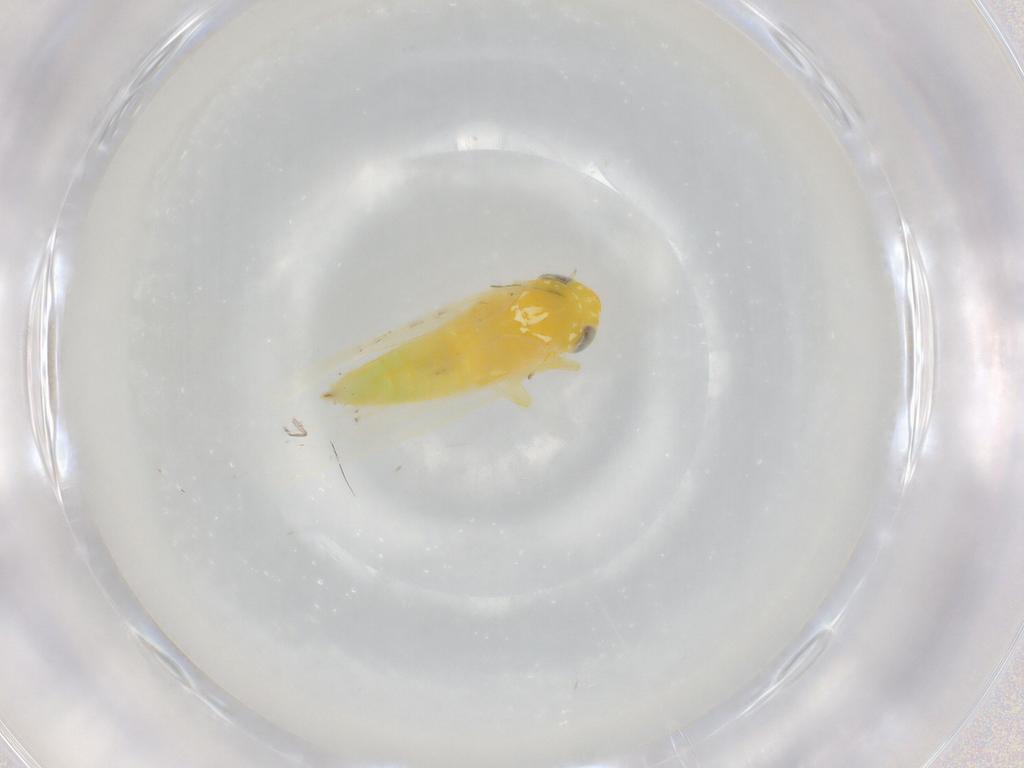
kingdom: Animalia
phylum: Arthropoda
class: Insecta
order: Hemiptera
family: Cicadellidae
